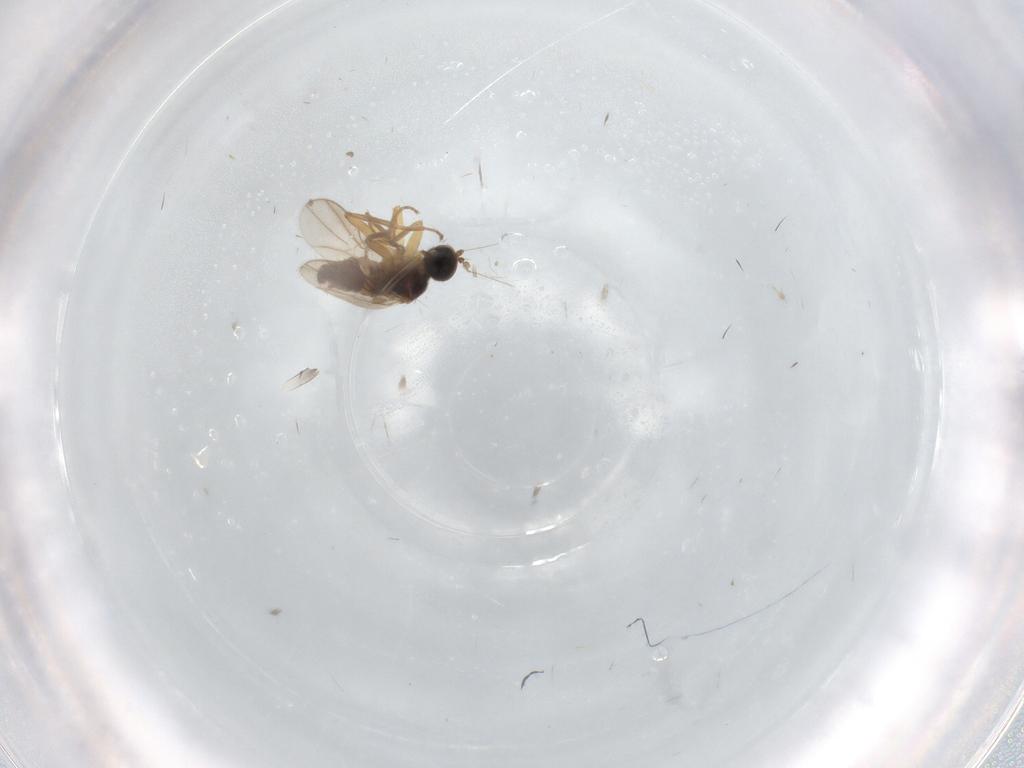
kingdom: Animalia
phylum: Arthropoda
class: Insecta
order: Diptera
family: Hybotidae
